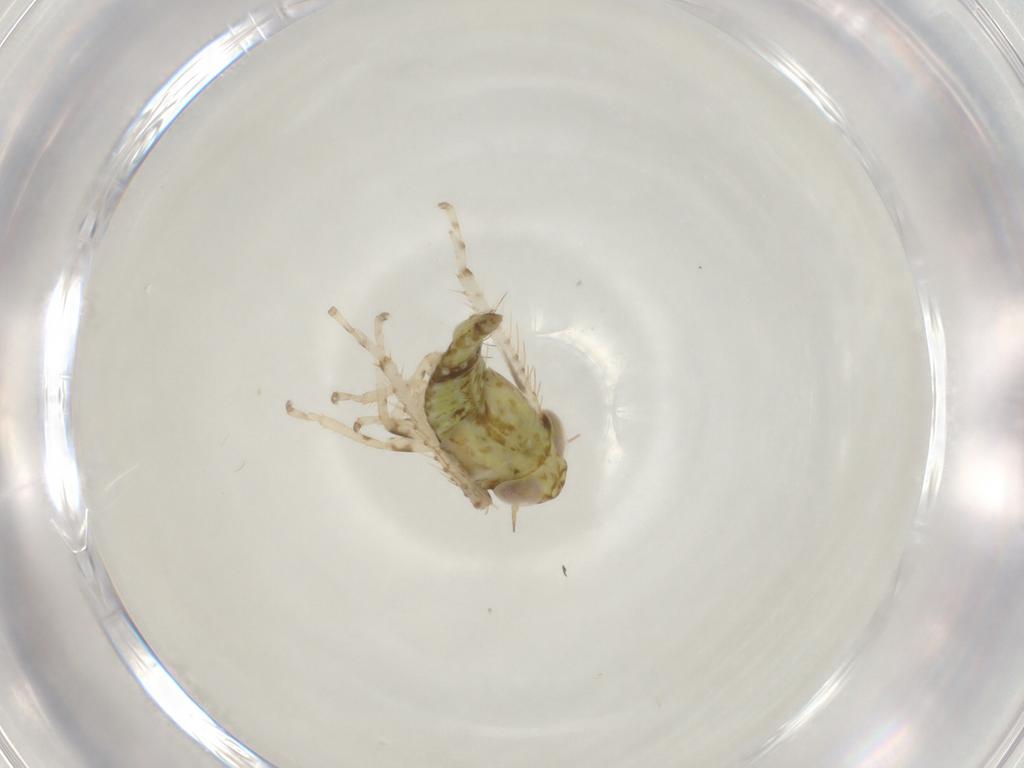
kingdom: Animalia
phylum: Arthropoda
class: Insecta
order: Hemiptera
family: Cicadellidae
